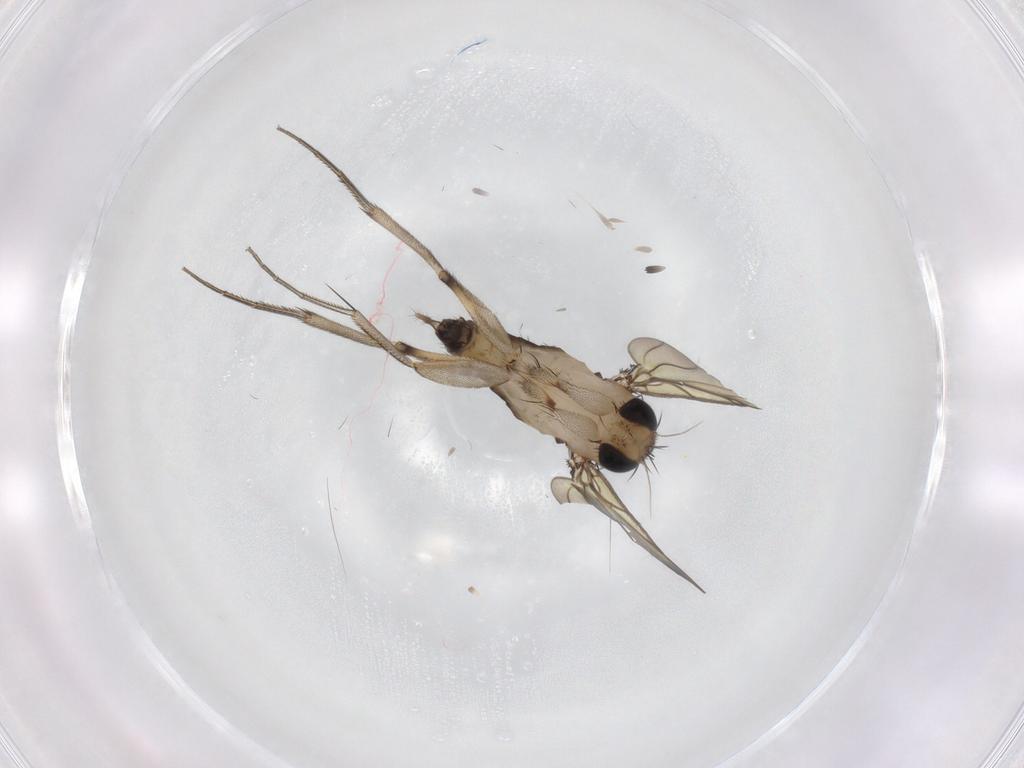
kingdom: Animalia
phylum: Arthropoda
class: Insecta
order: Diptera
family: Phoridae
